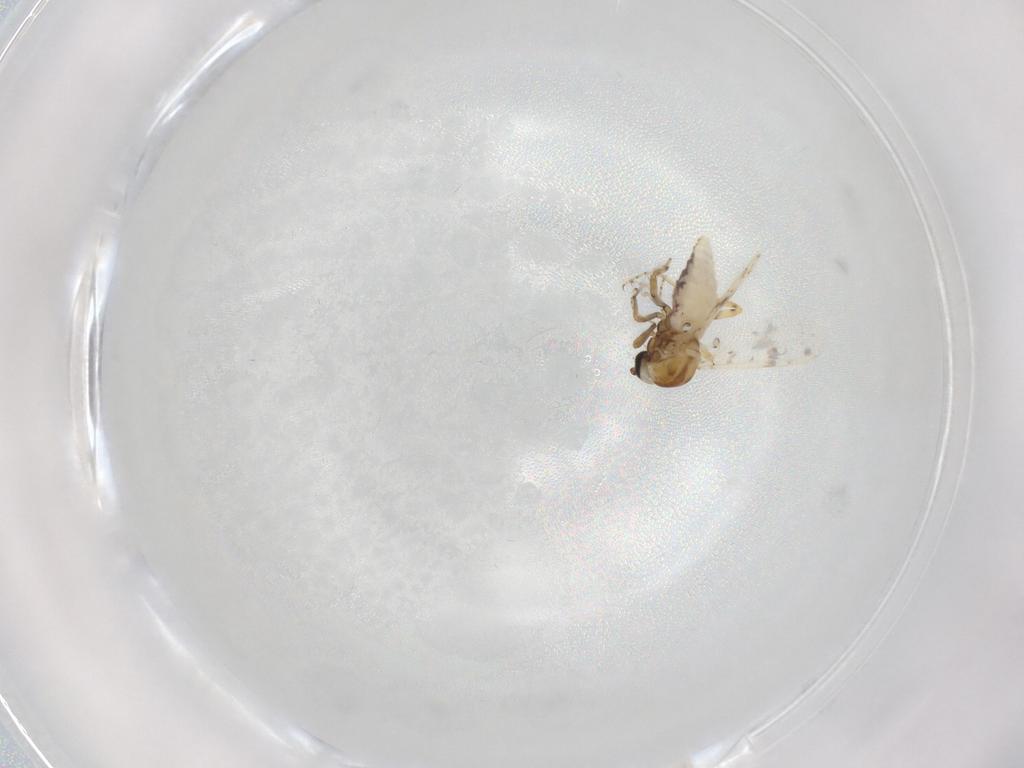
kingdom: Animalia
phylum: Arthropoda
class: Insecta
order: Diptera
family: Ceratopogonidae
